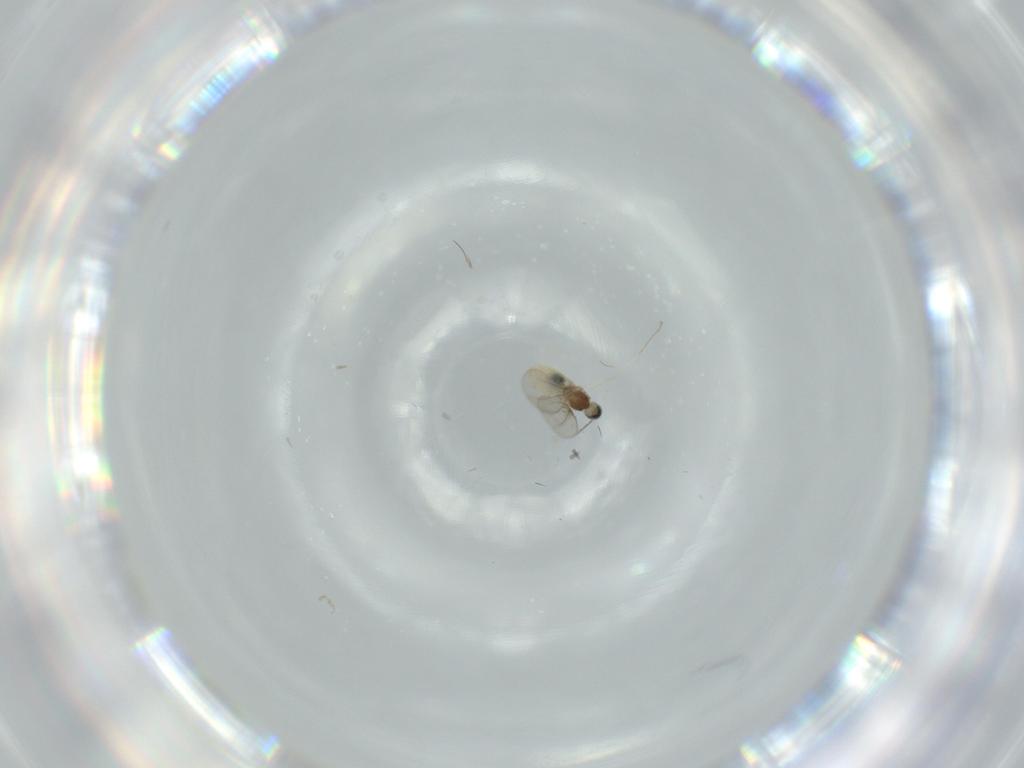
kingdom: Animalia
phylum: Arthropoda
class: Insecta
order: Diptera
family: Cecidomyiidae
